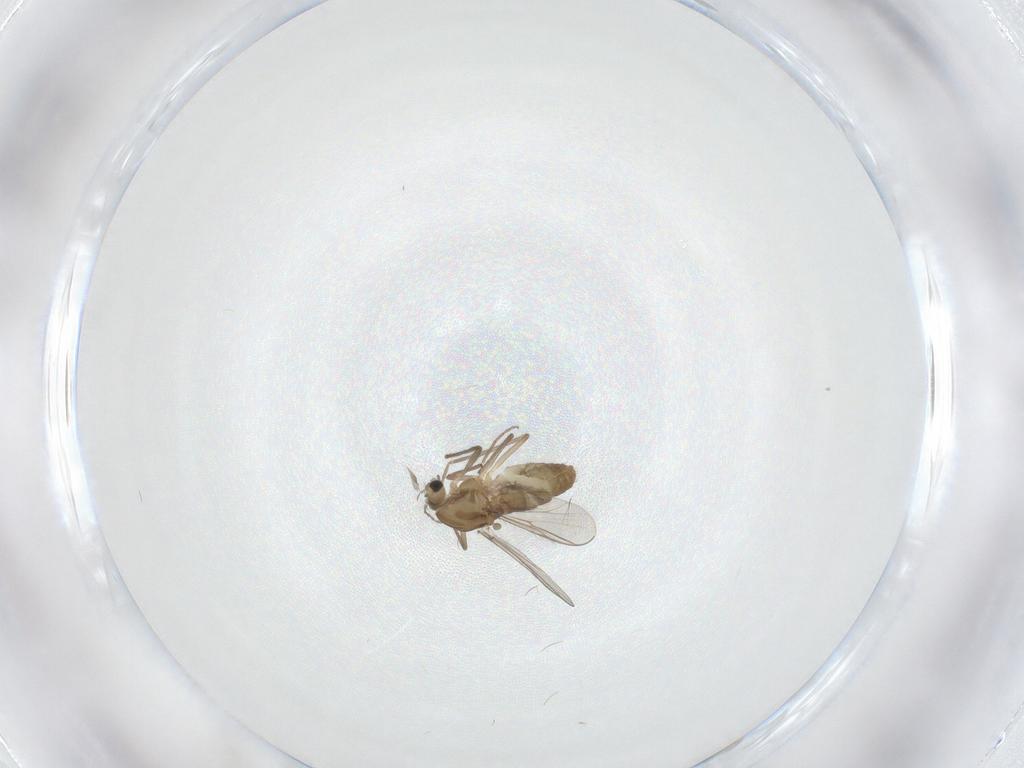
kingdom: Animalia
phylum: Arthropoda
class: Insecta
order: Diptera
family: Chironomidae
